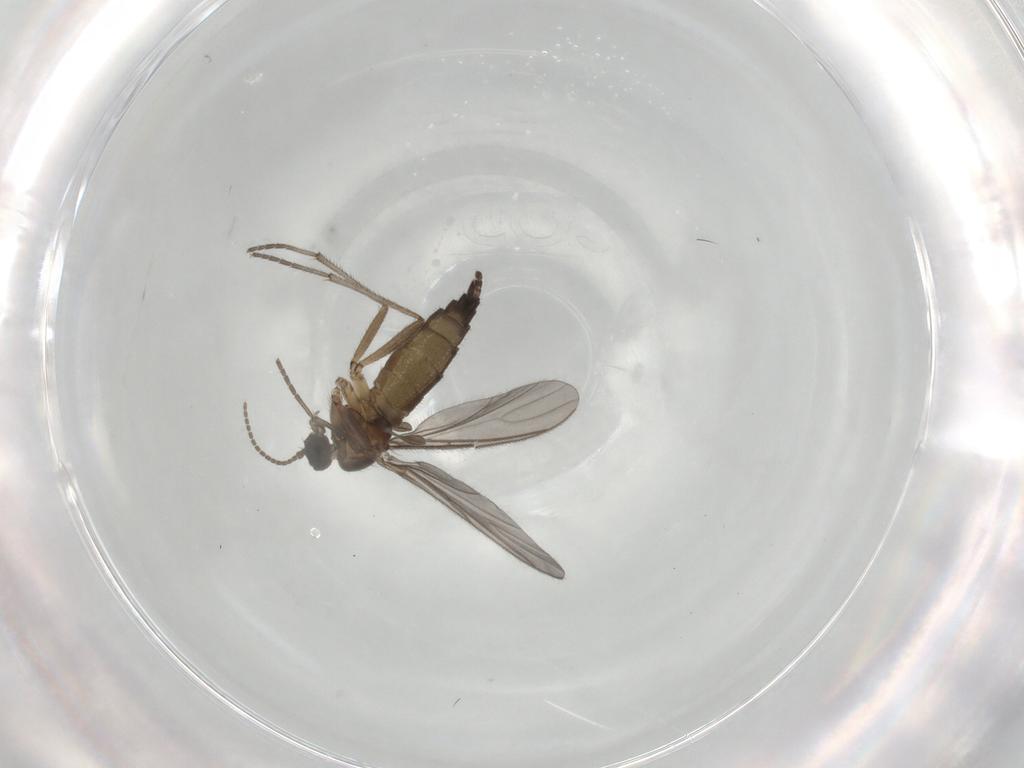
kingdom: Animalia
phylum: Arthropoda
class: Insecta
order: Diptera
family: Sciaridae
